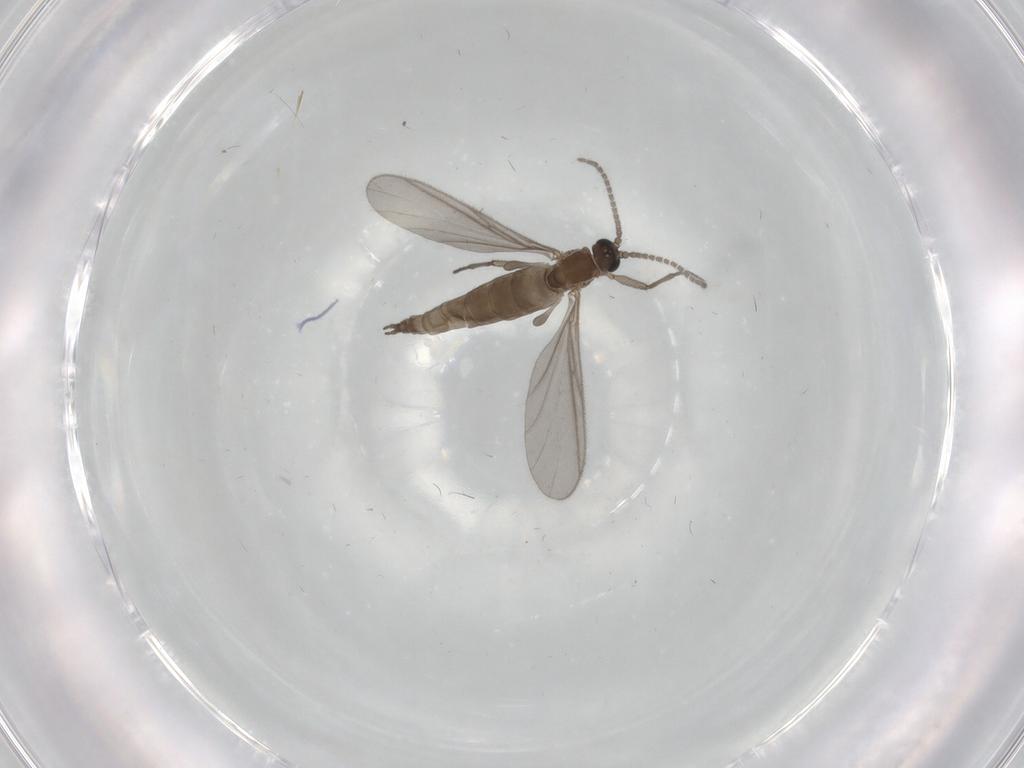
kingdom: Animalia
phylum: Arthropoda
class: Insecta
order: Diptera
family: Sciaridae
